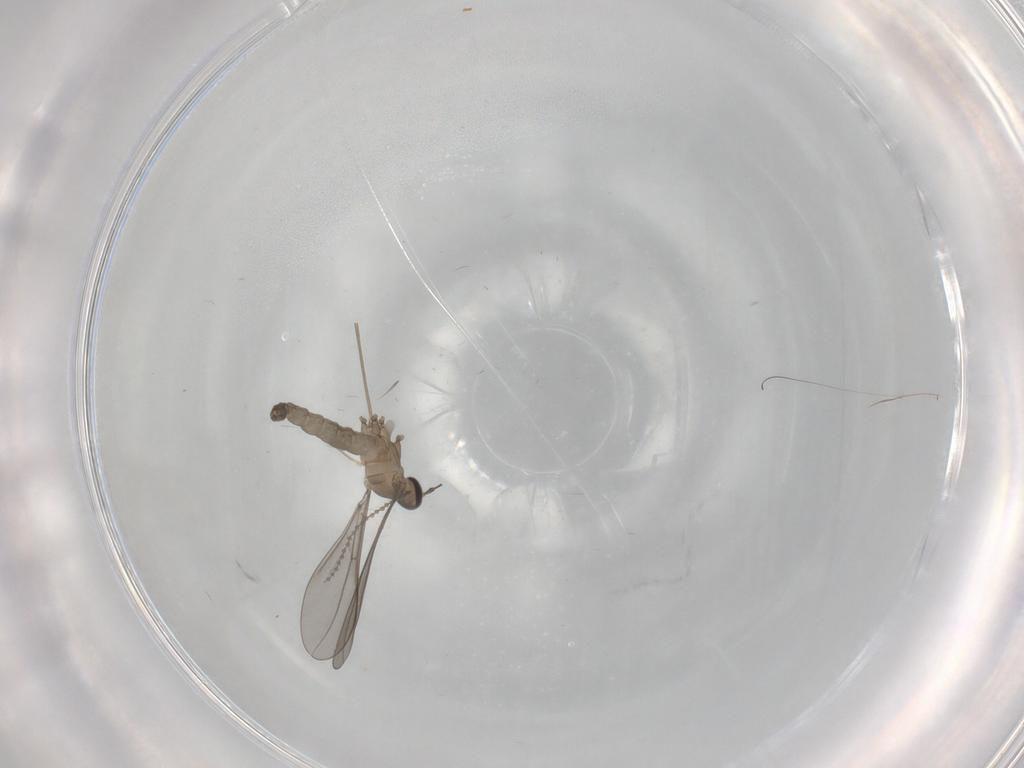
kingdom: Animalia
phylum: Arthropoda
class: Insecta
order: Diptera
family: Cecidomyiidae
